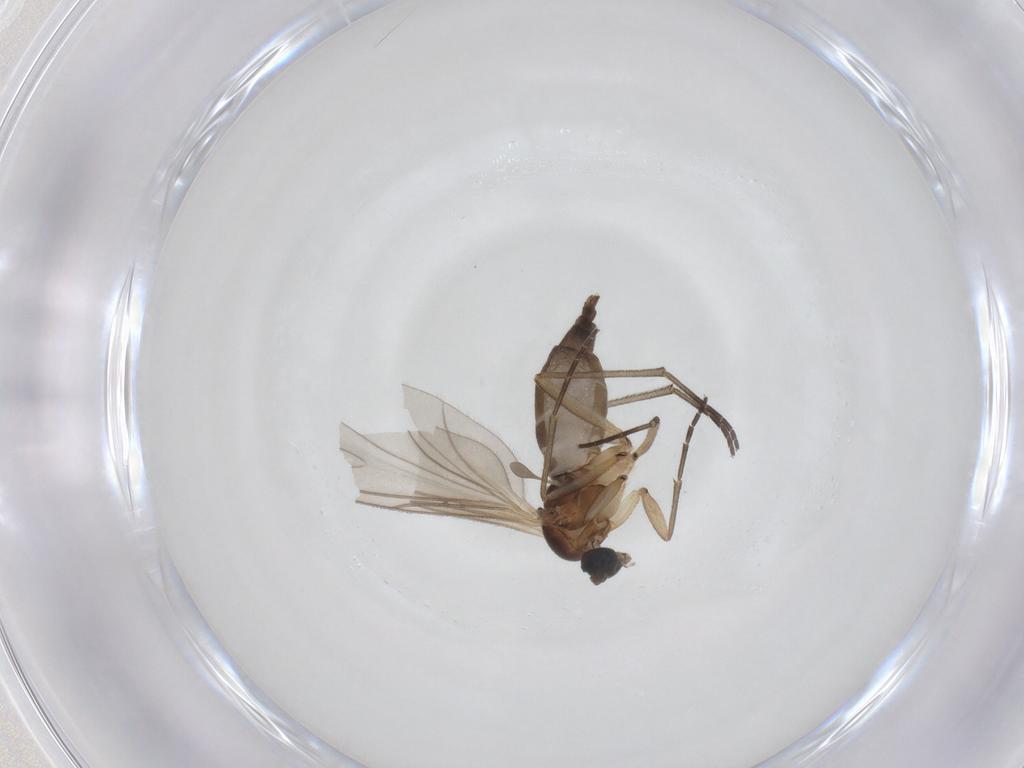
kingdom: Animalia
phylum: Arthropoda
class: Insecta
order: Diptera
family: Sciaridae
